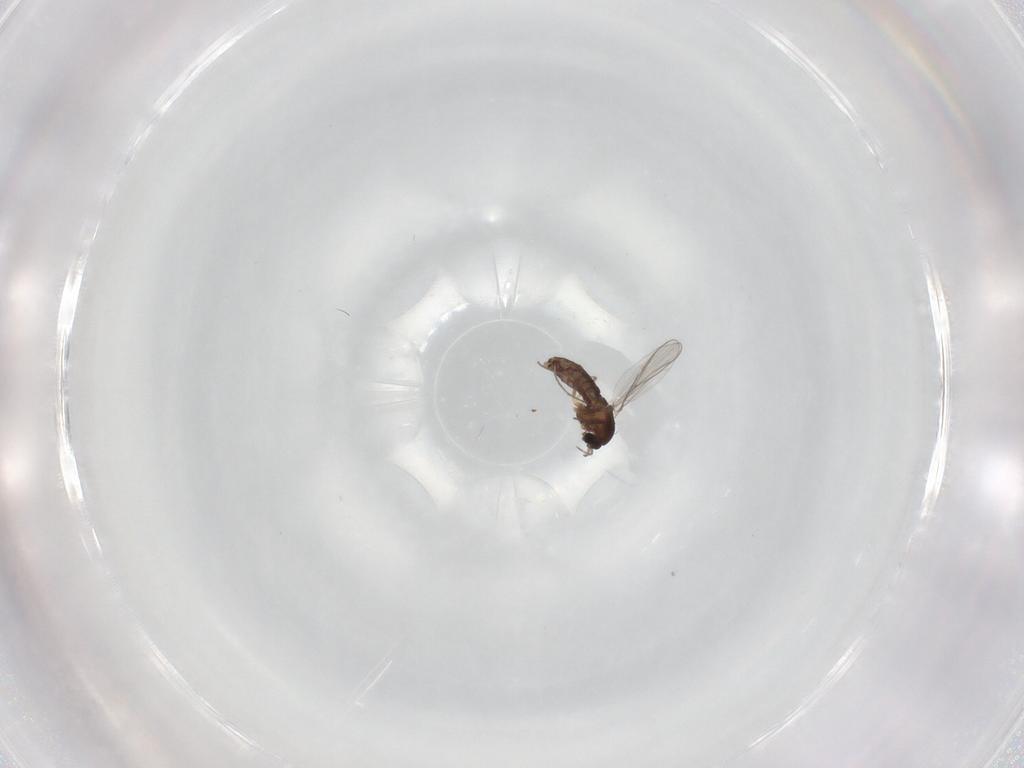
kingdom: Animalia
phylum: Arthropoda
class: Insecta
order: Diptera
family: Chironomidae
